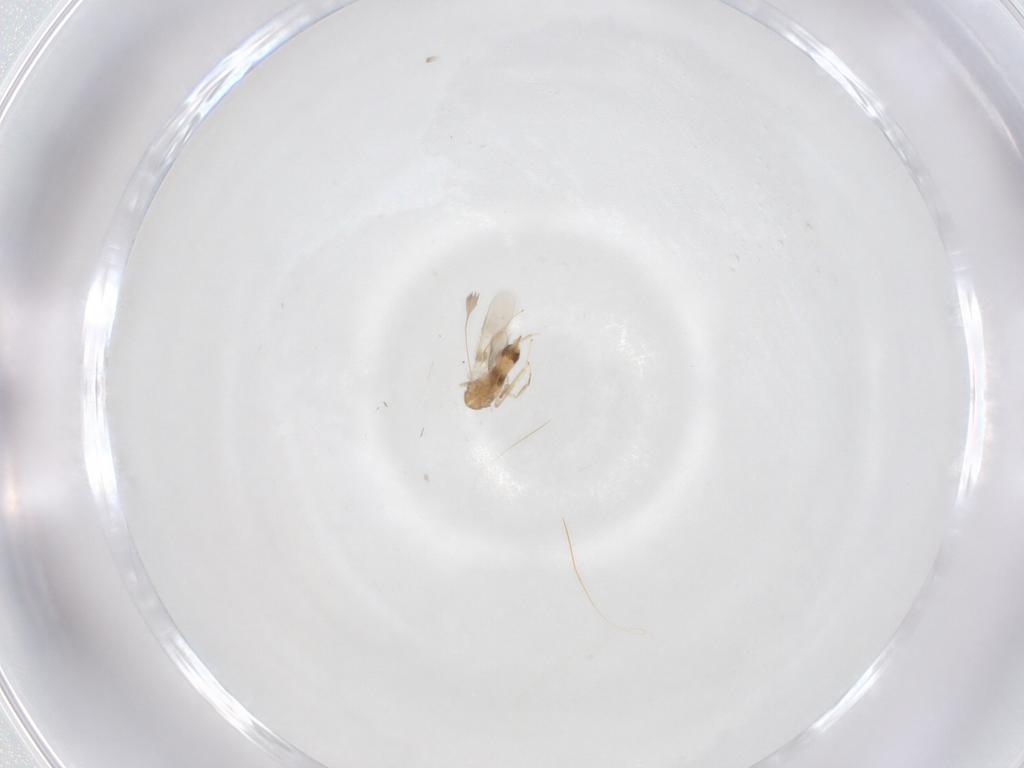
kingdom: Animalia
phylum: Arthropoda
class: Insecta
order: Hymenoptera
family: Aphelinidae
